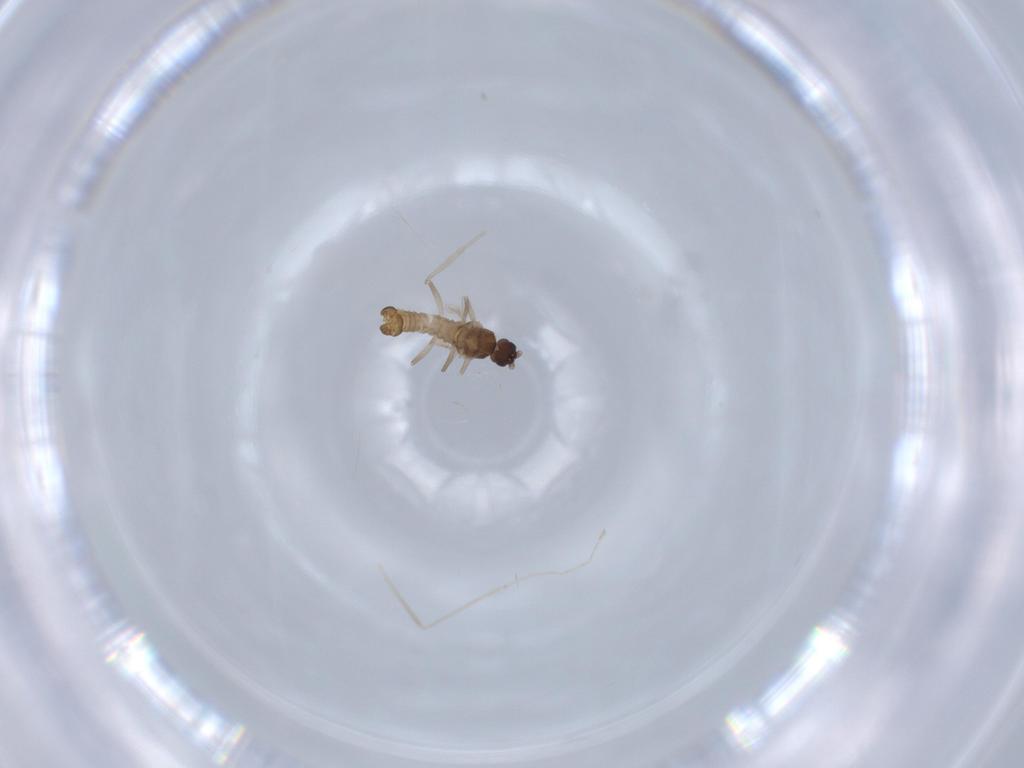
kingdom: Animalia
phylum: Arthropoda
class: Insecta
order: Diptera
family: Cecidomyiidae
